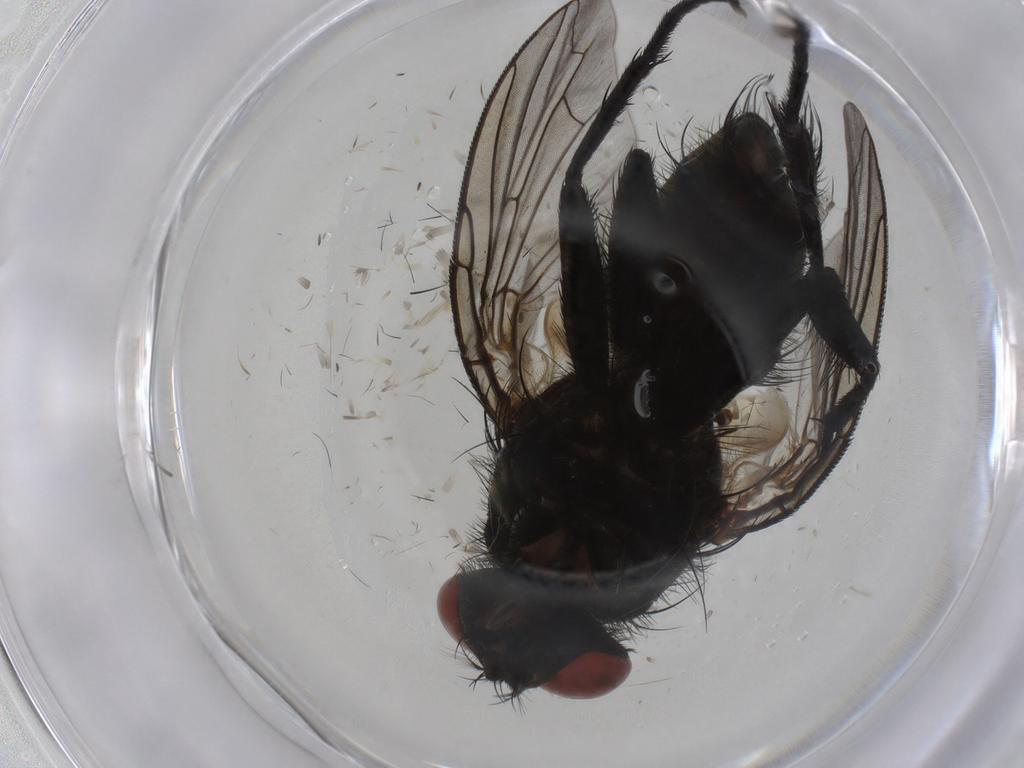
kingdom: Animalia
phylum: Arthropoda
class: Insecta
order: Diptera
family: Sarcophagidae
